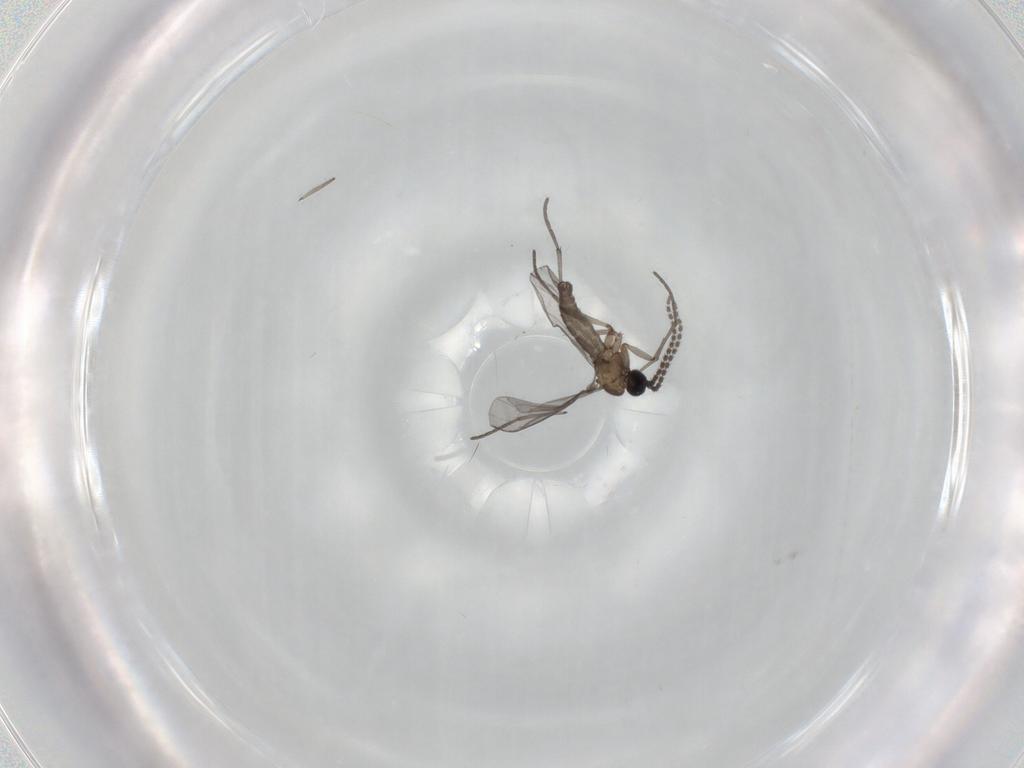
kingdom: Animalia
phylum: Arthropoda
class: Insecta
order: Diptera
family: Sciaridae
